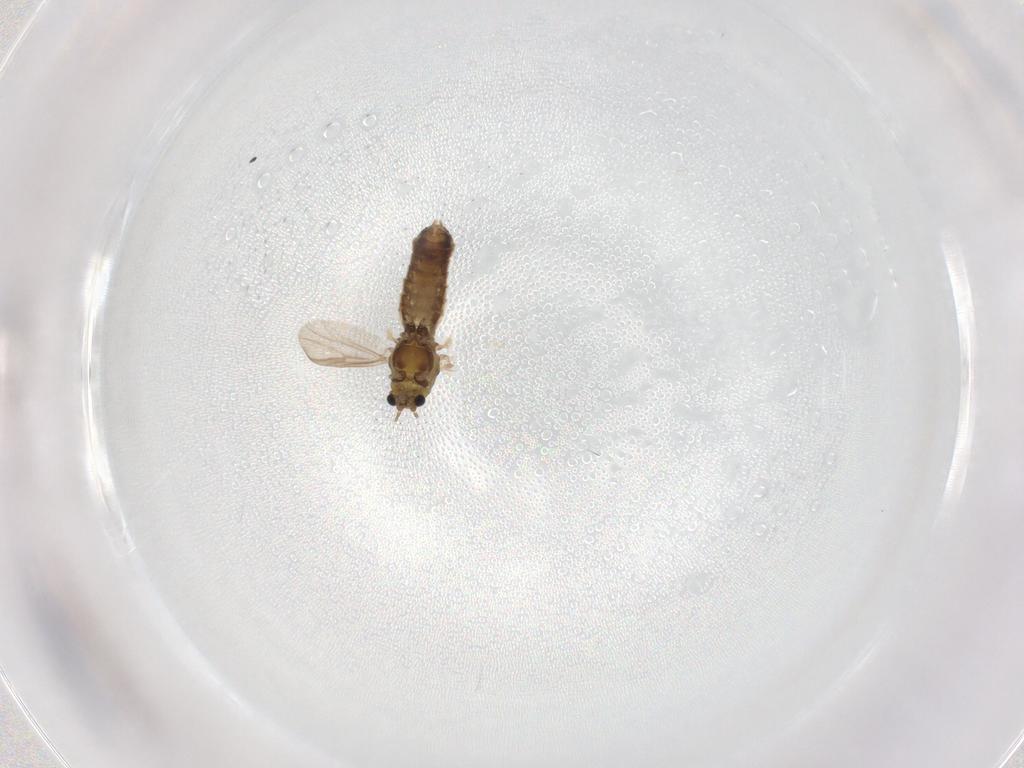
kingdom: Animalia
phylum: Arthropoda
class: Insecta
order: Diptera
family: Chironomidae
